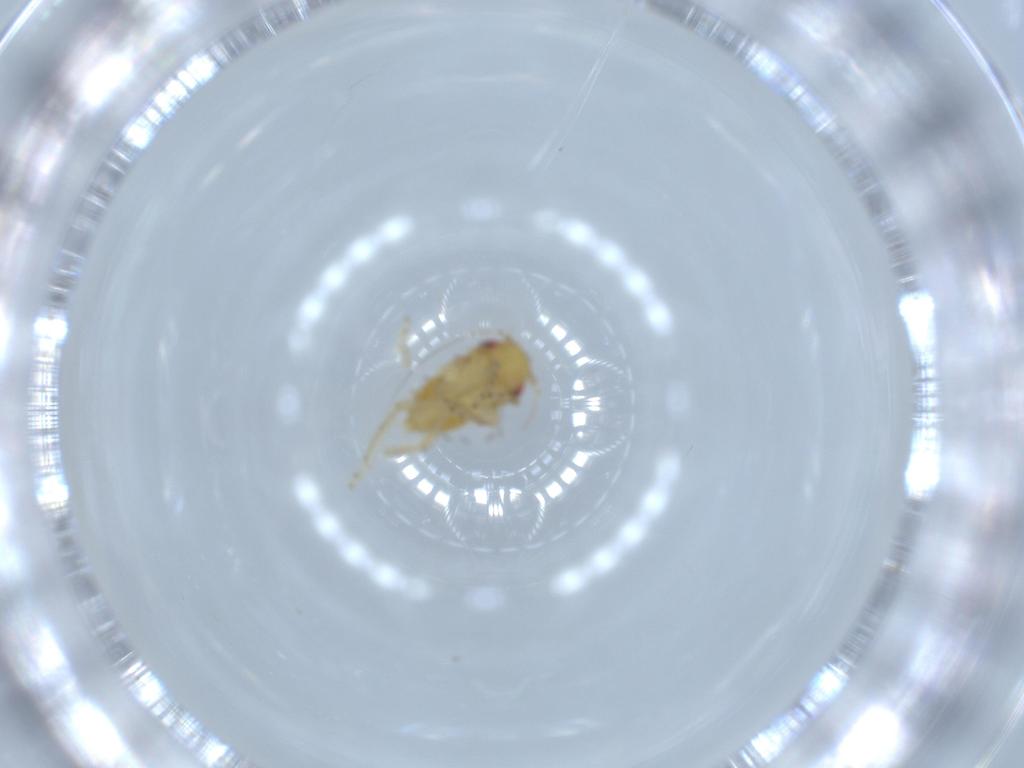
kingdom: Animalia
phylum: Arthropoda
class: Insecta
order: Hemiptera
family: Cicadellidae
